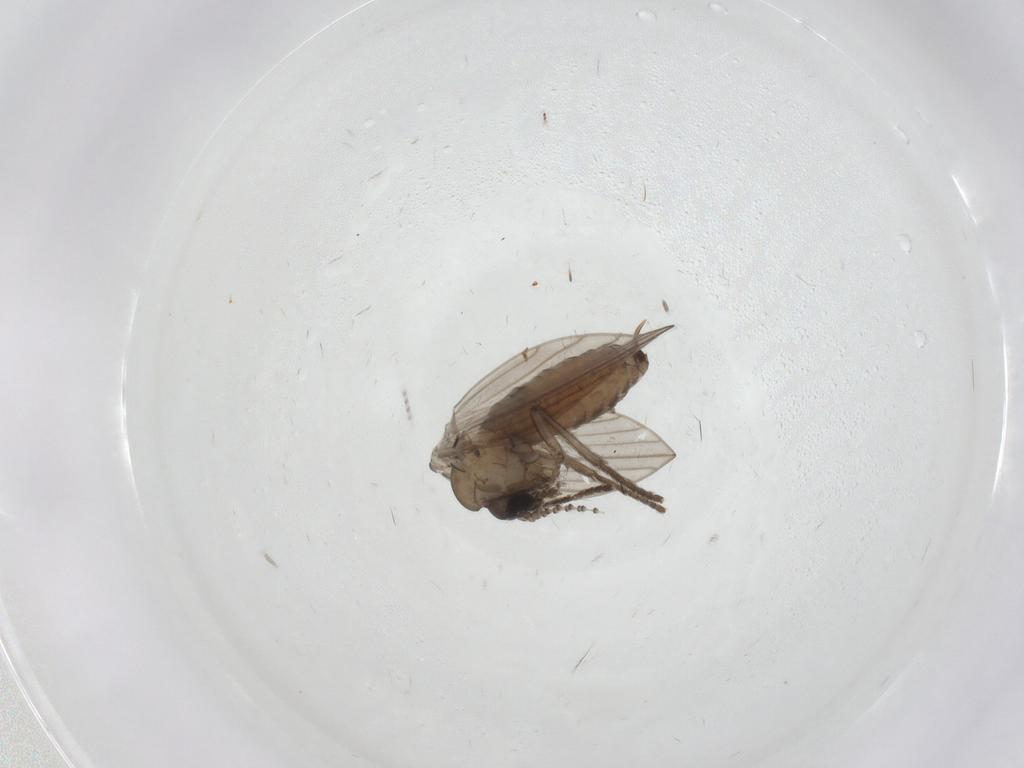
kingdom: Animalia
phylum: Arthropoda
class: Insecta
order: Diptera
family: Psychodidae
